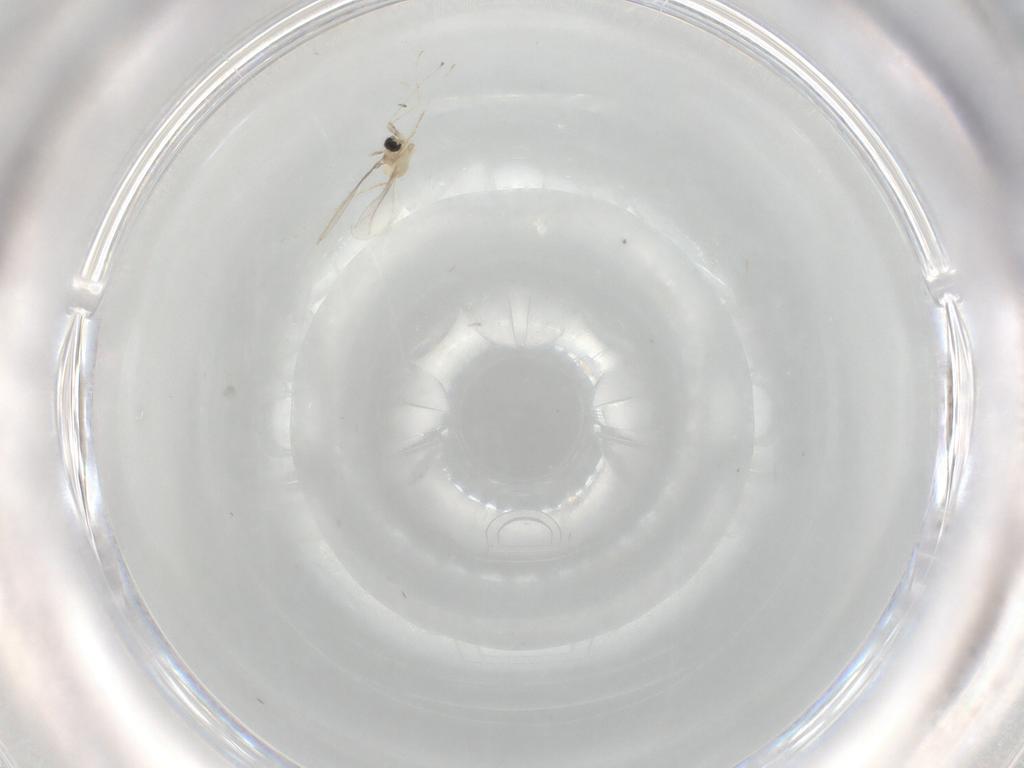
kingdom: Animalia
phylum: Arthropoda
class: Insecta
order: Diptera
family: Cecidomyiidae
